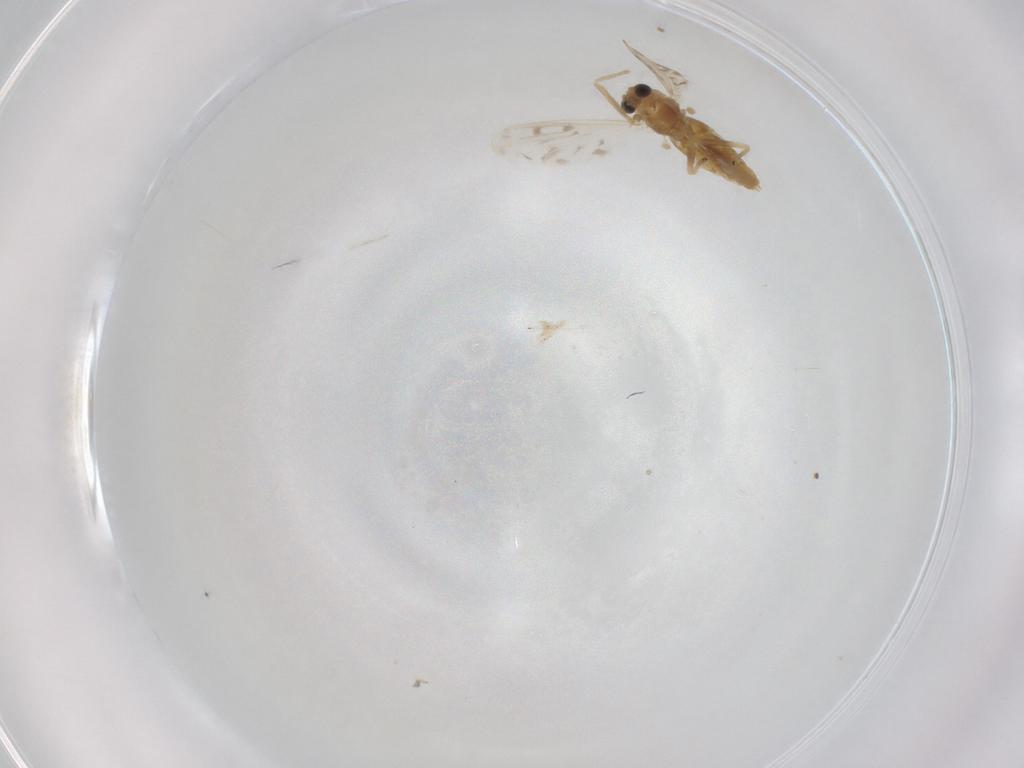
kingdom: Animalia
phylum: Arthropoda
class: Insecta
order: Diptera
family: Chironomidae
